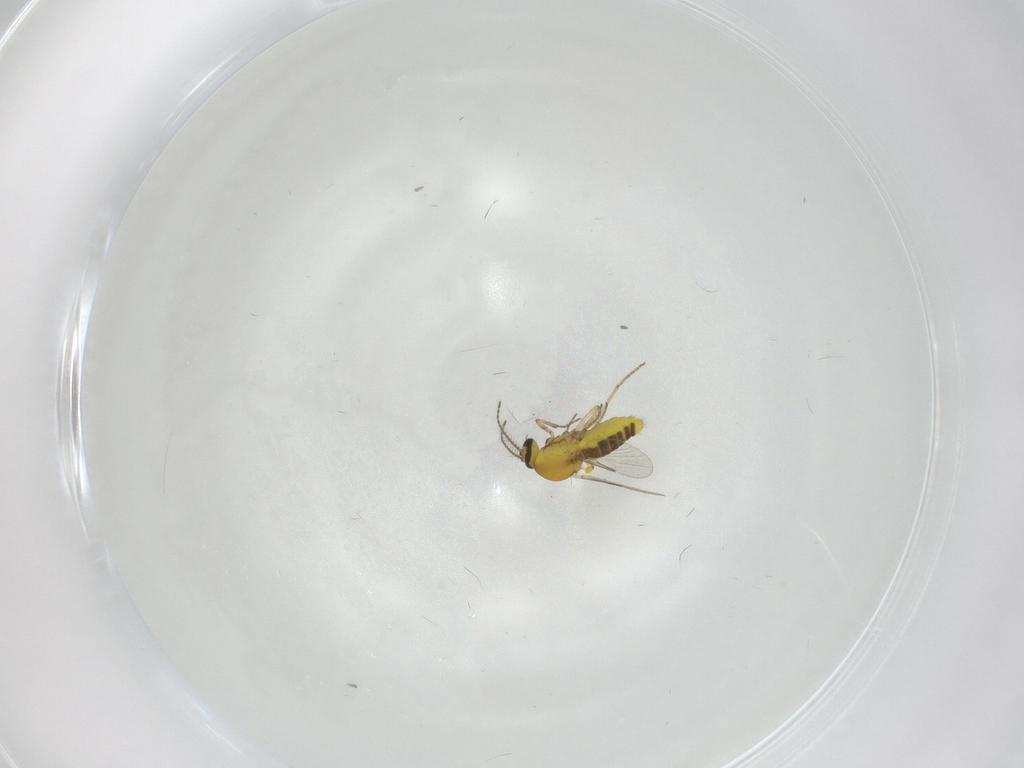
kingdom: Animalia
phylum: Arthropoda
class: Insecta
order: Diptera
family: Ceratopogonidae
